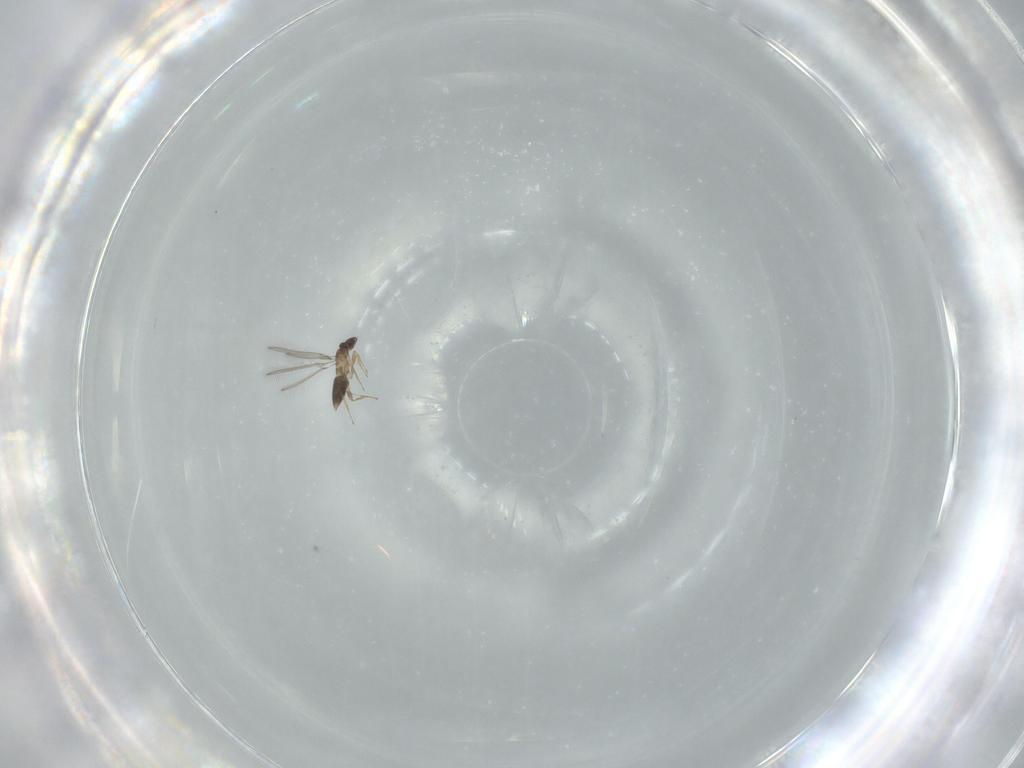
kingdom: Animalia
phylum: Arthropoda
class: Insecta
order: Hymenoptera
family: Mymaridae
